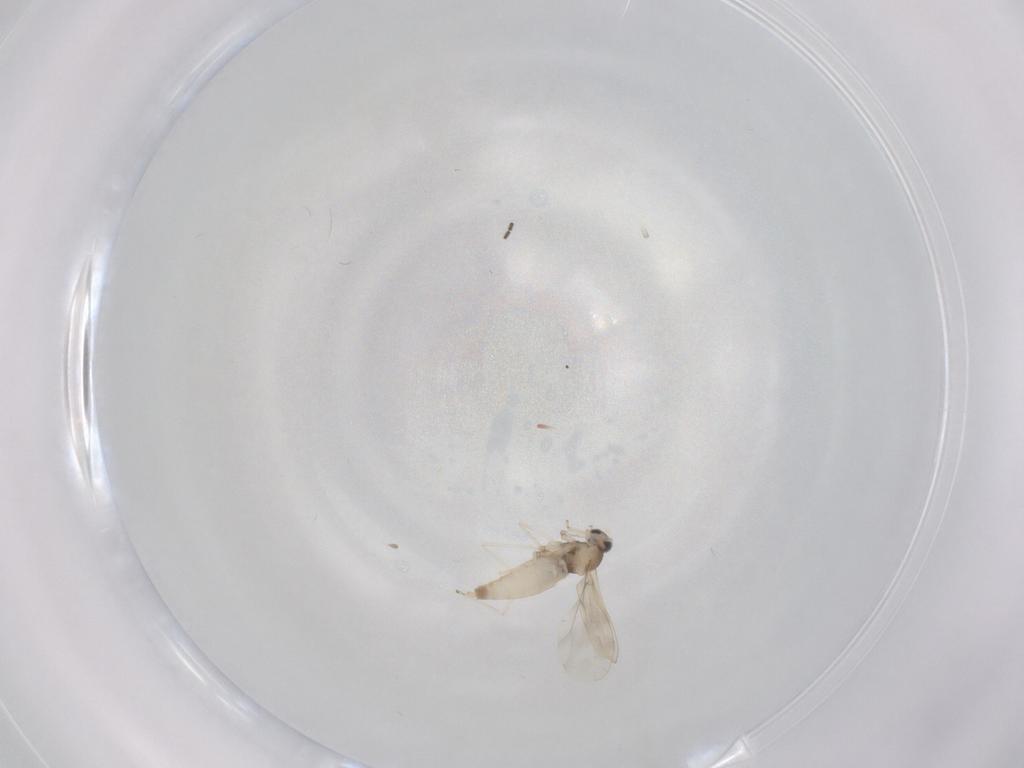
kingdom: Animalia
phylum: Arthropoda
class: Insecta
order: Diptera
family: Cecidomyiidae
